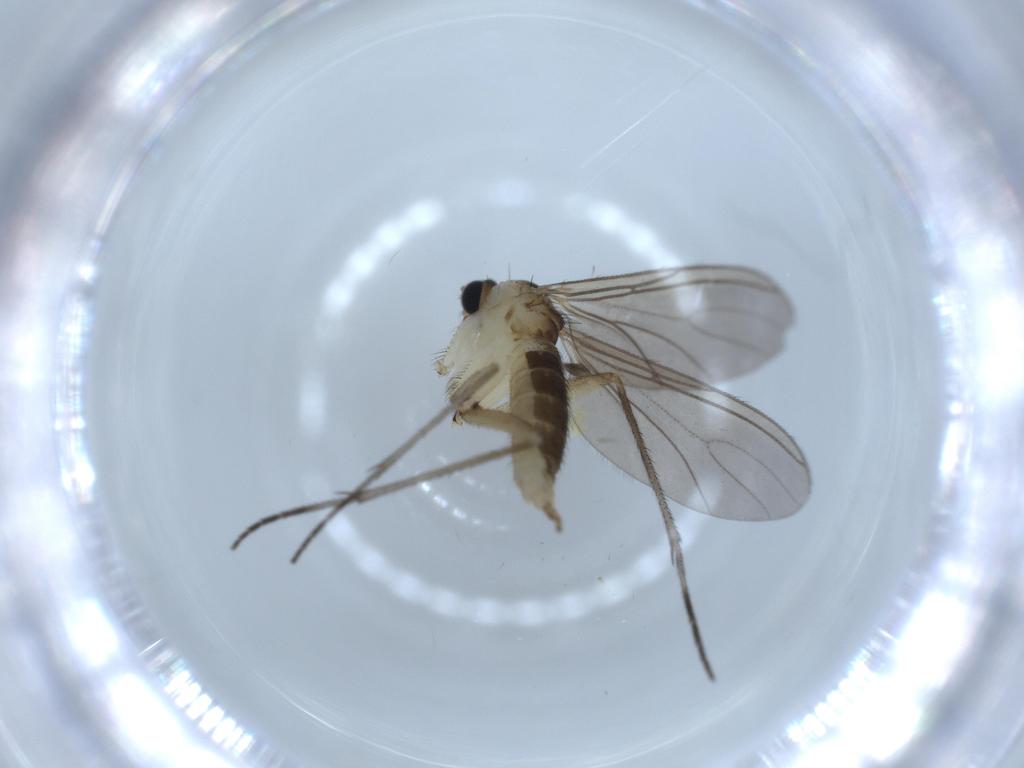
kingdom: Animalia
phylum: Arthropoda
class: Insecta
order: Diptera
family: Sciaridae
